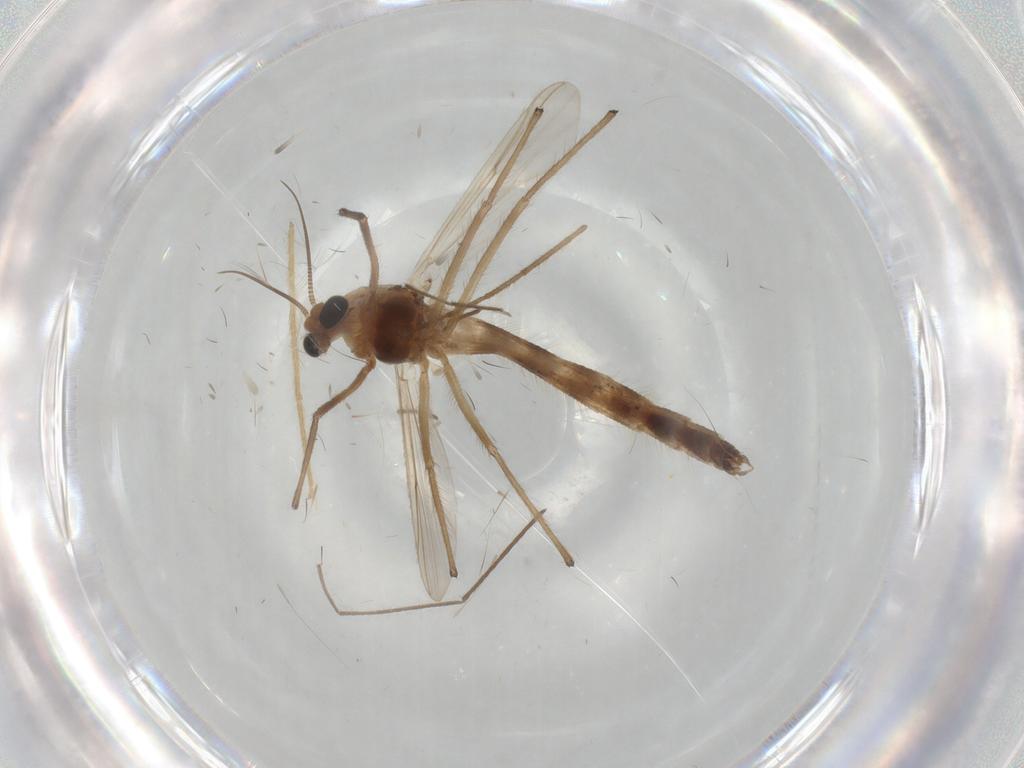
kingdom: Animalia
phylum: Arthropoda
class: Insecta
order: Diptera
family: Chironomidae
